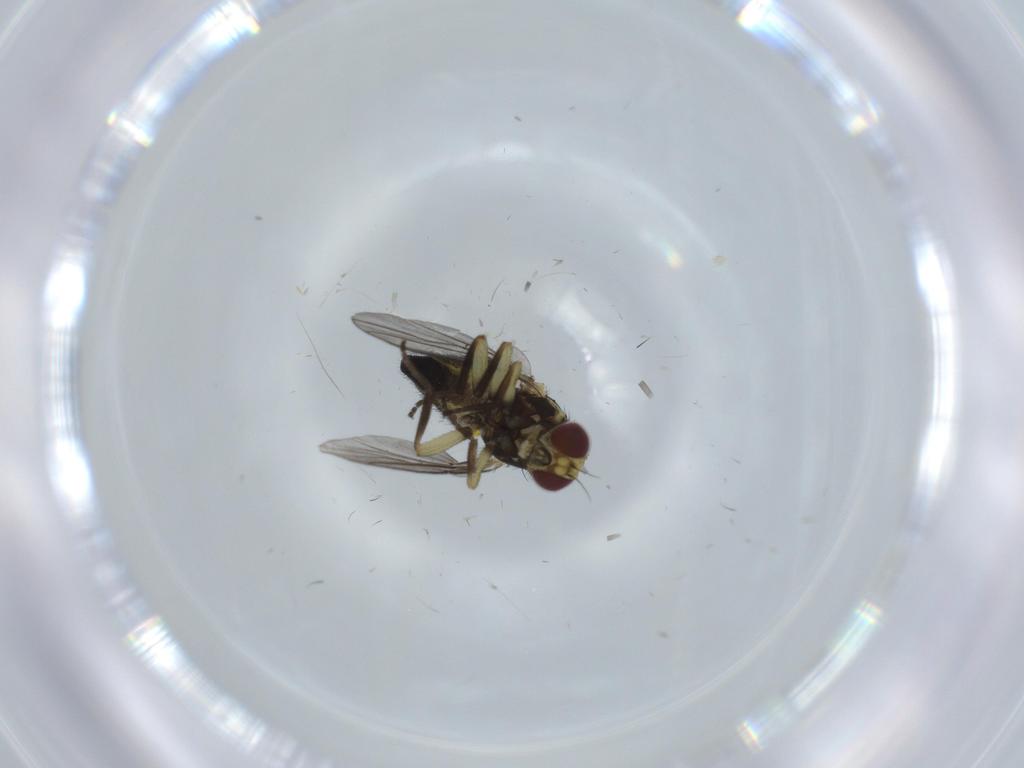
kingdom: Animalia
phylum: Arthropoda
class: Insecta
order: Diptera
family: Agromyzidae
